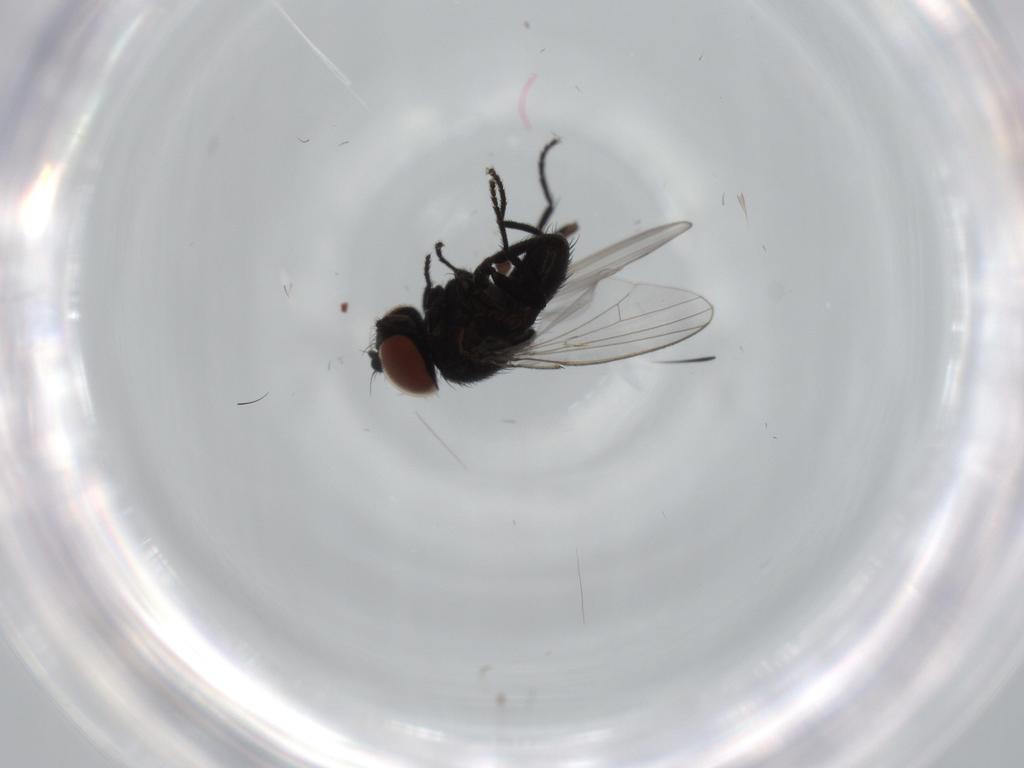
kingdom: Animalia
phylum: Arthropoda
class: Insecta
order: Diptera
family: Milichiidae
